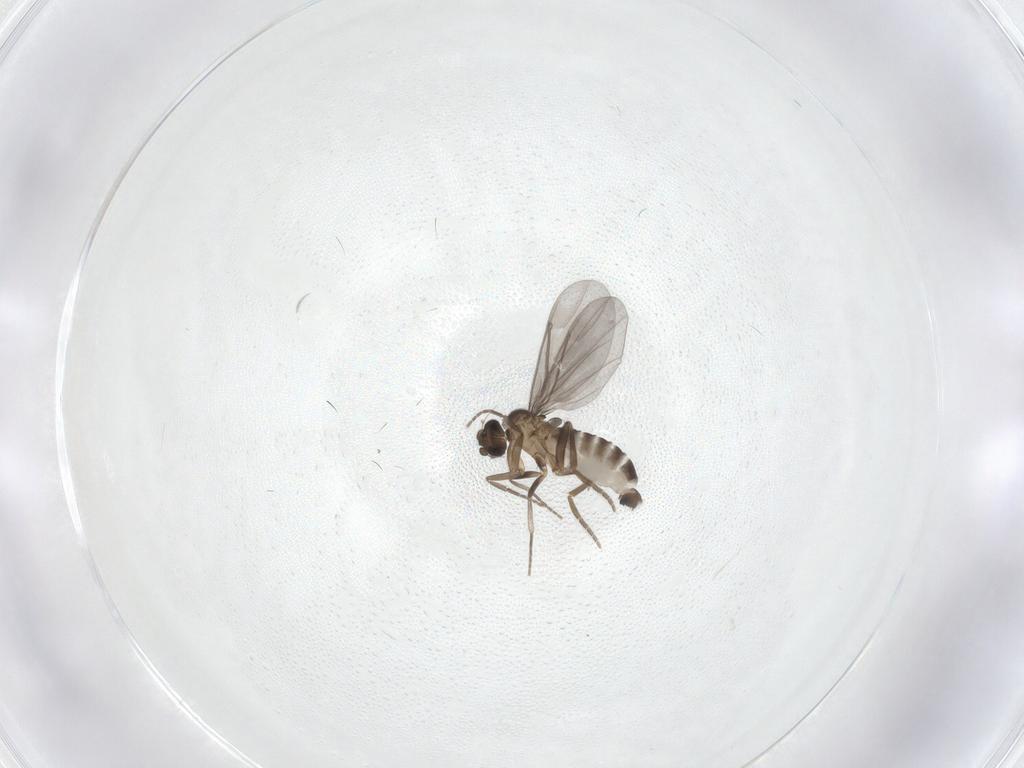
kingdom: Animalia
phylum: Arthropoda
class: Insecta
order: Diptera
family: Phoridae
